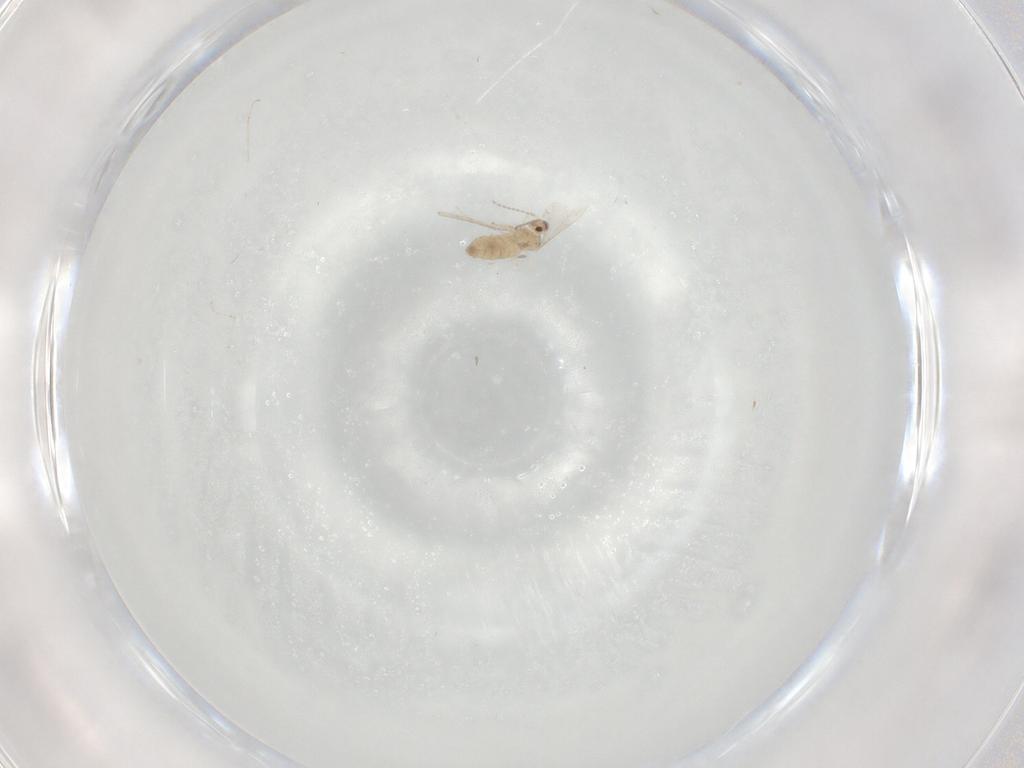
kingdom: Animalia
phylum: Arthropoda
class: Insecta
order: Diptera
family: Cecidomyiidae
